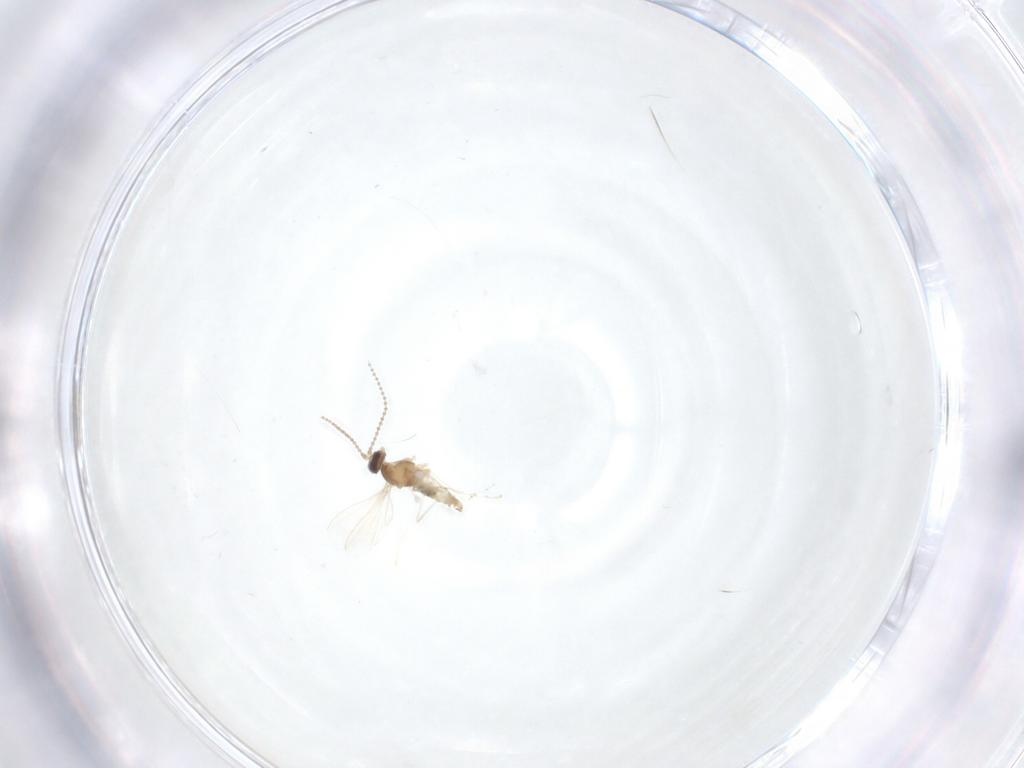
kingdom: Animalia
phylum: Arthropoda
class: Insecta
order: Diptera
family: Cecidomyiidae
